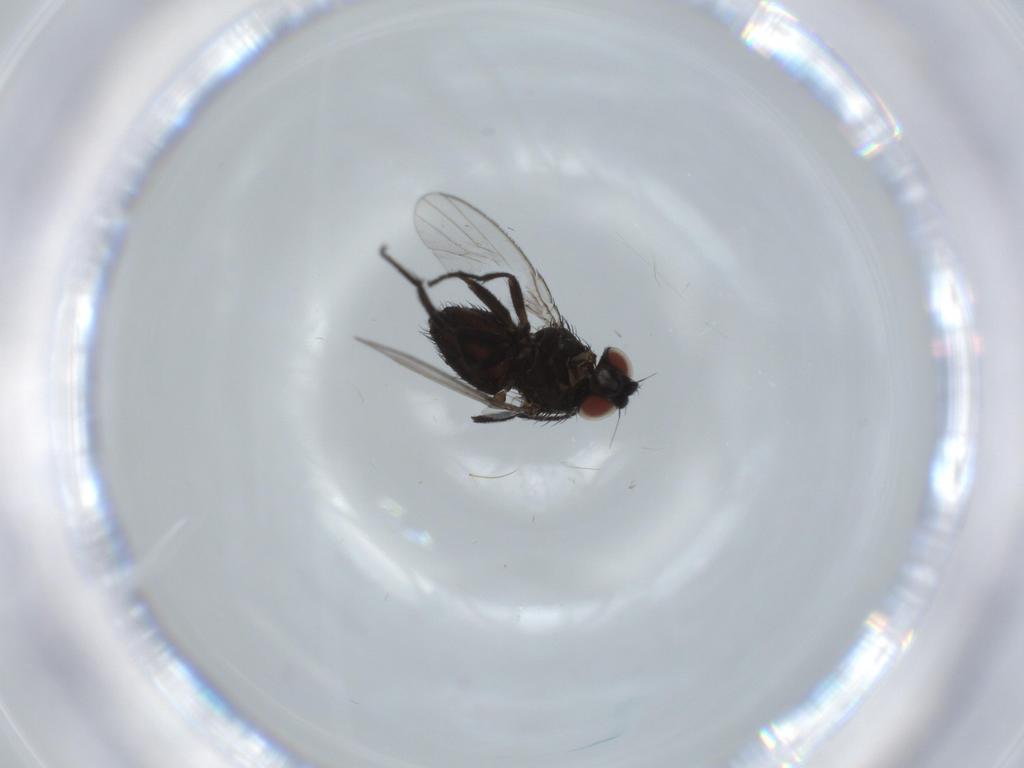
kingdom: Animalia
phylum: Arthropoda
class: Insecta
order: Diptera
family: Milichiidae
